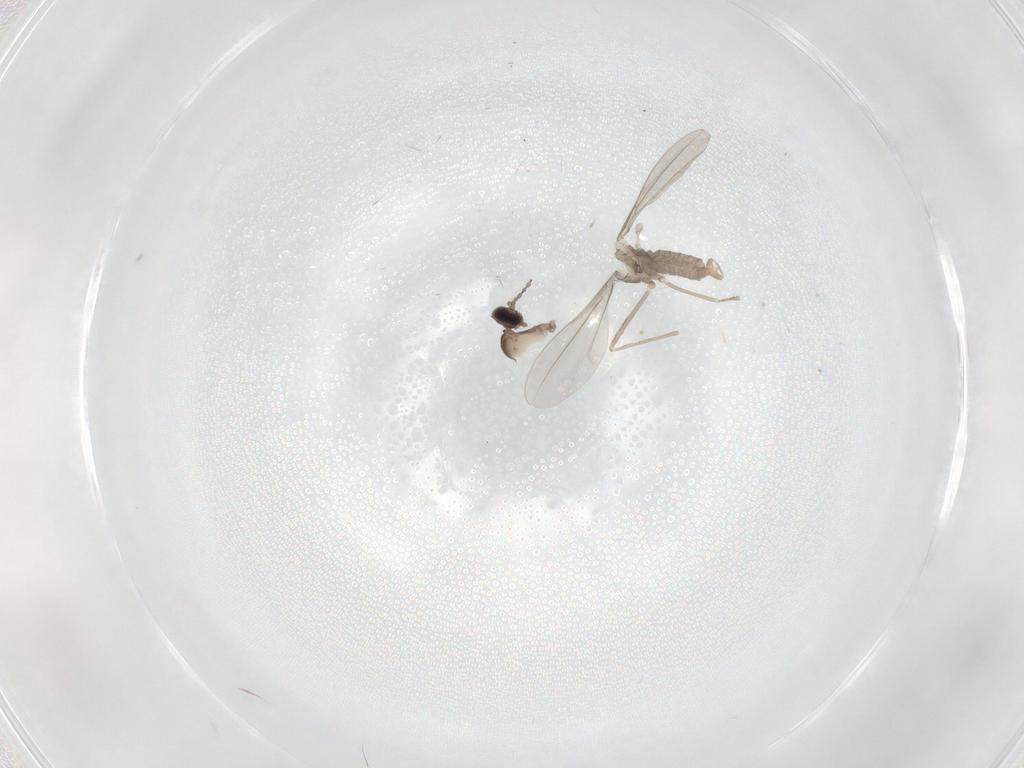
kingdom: Animalia
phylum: Arthropoda
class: Insecta
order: Diptera
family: Cecidomyiidae
